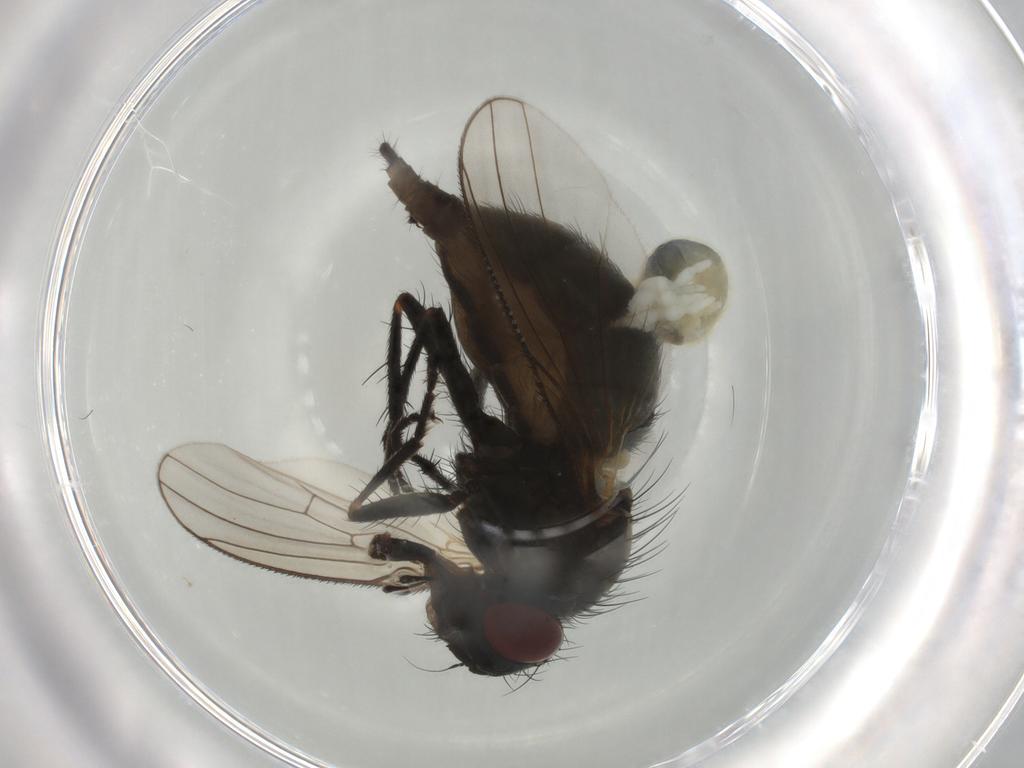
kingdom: Animalia
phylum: Arthropoda
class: Insecta
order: Diptera
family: Muscidae
